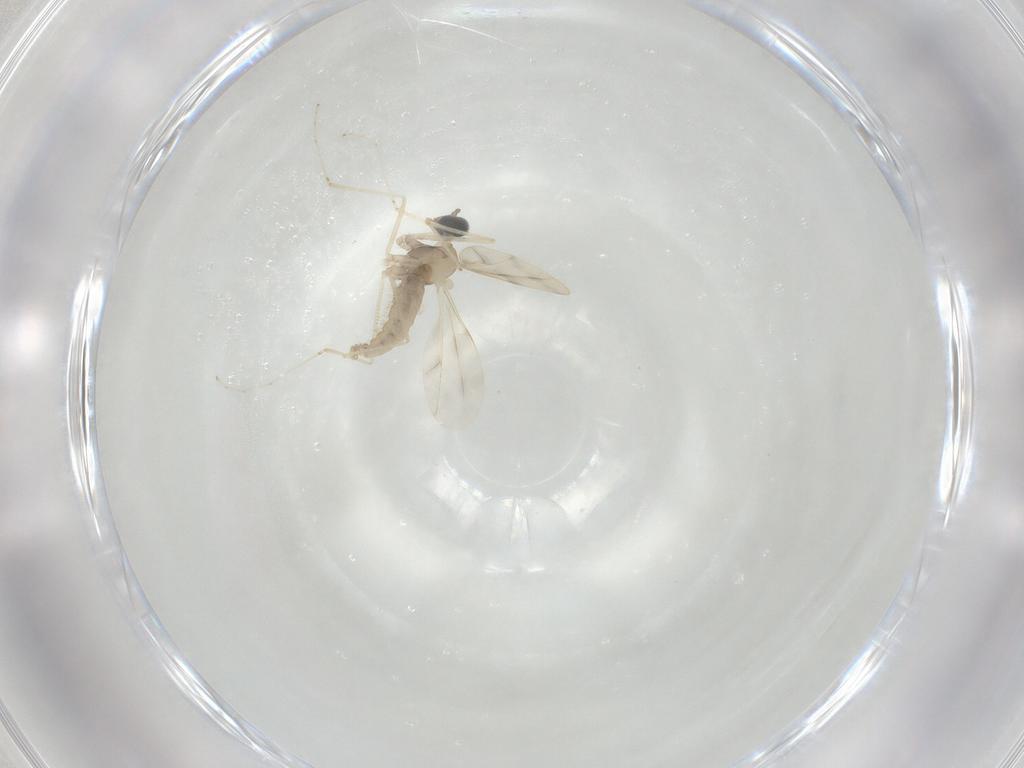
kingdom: Animalia
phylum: Arthropoda
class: Insecta
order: Diptera
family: Cecidomyiidae
